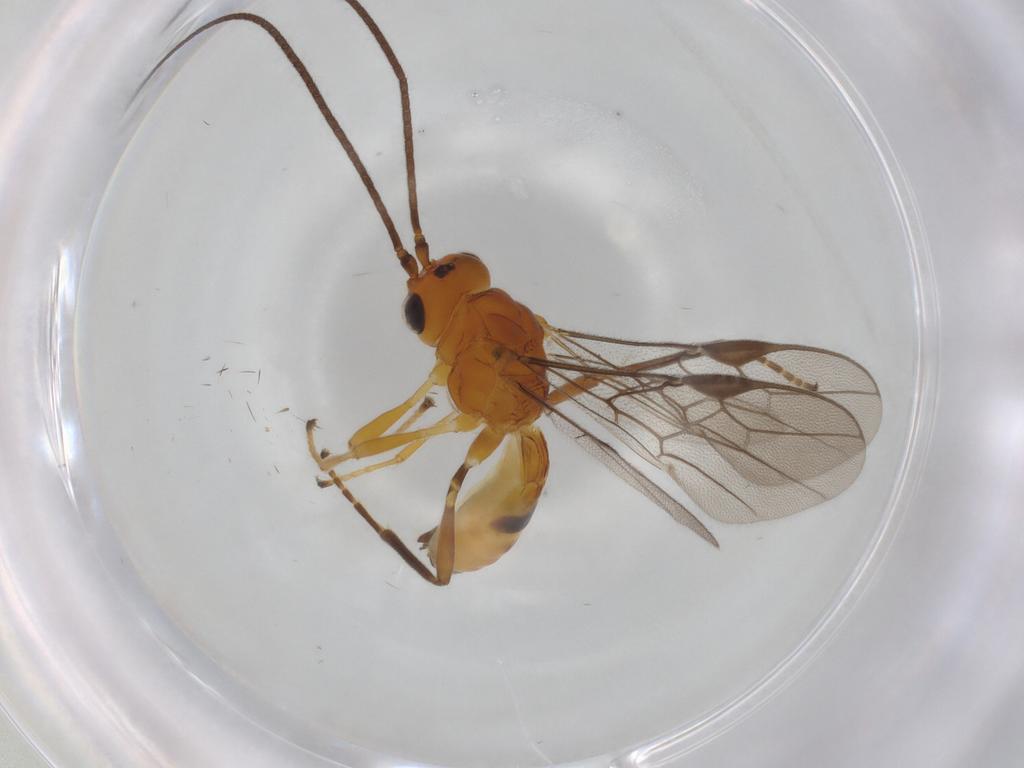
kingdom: Animalia
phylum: Arthropoda
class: Insecta
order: Hymenoptera
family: Braconidae
